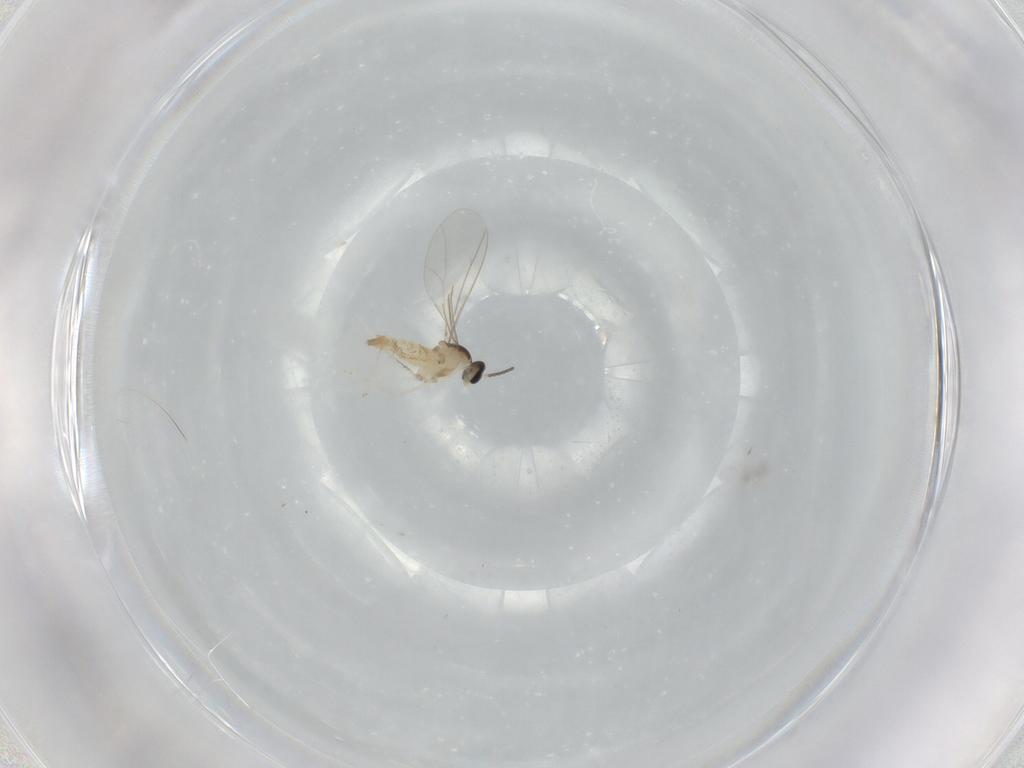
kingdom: Animalia
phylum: Arthropoda
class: Insecta
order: Diptera
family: Cecidomyiidae
